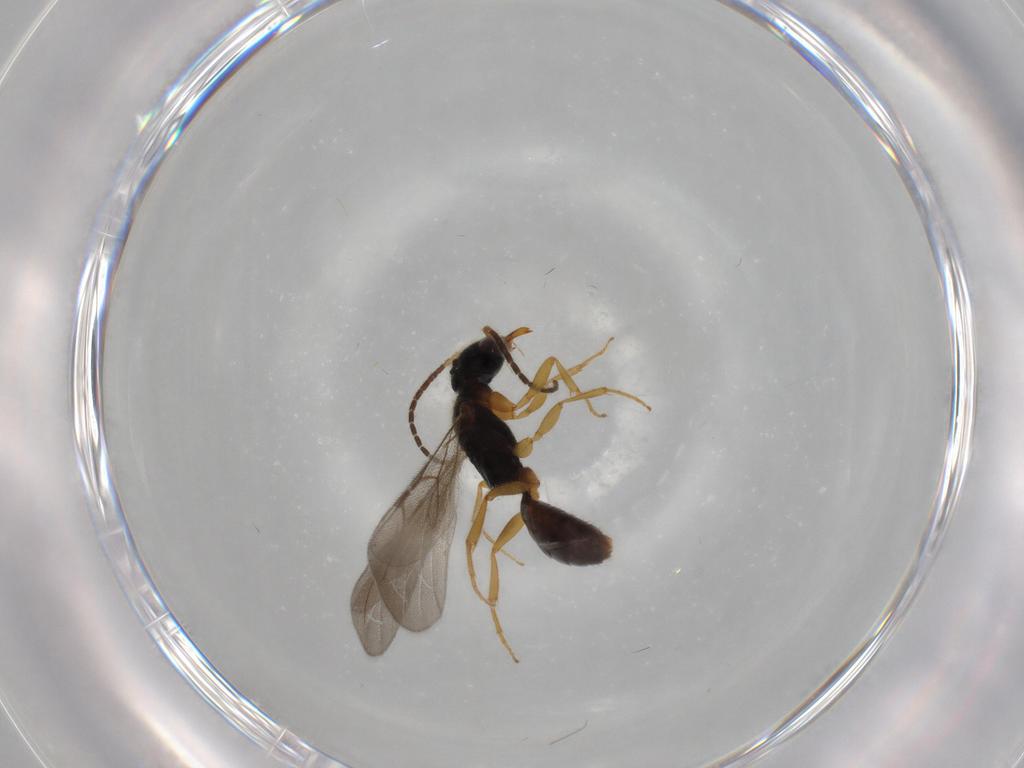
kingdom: Animalia
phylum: Arthropoda
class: Insecta
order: Hymenoptera
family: Bethylidae
